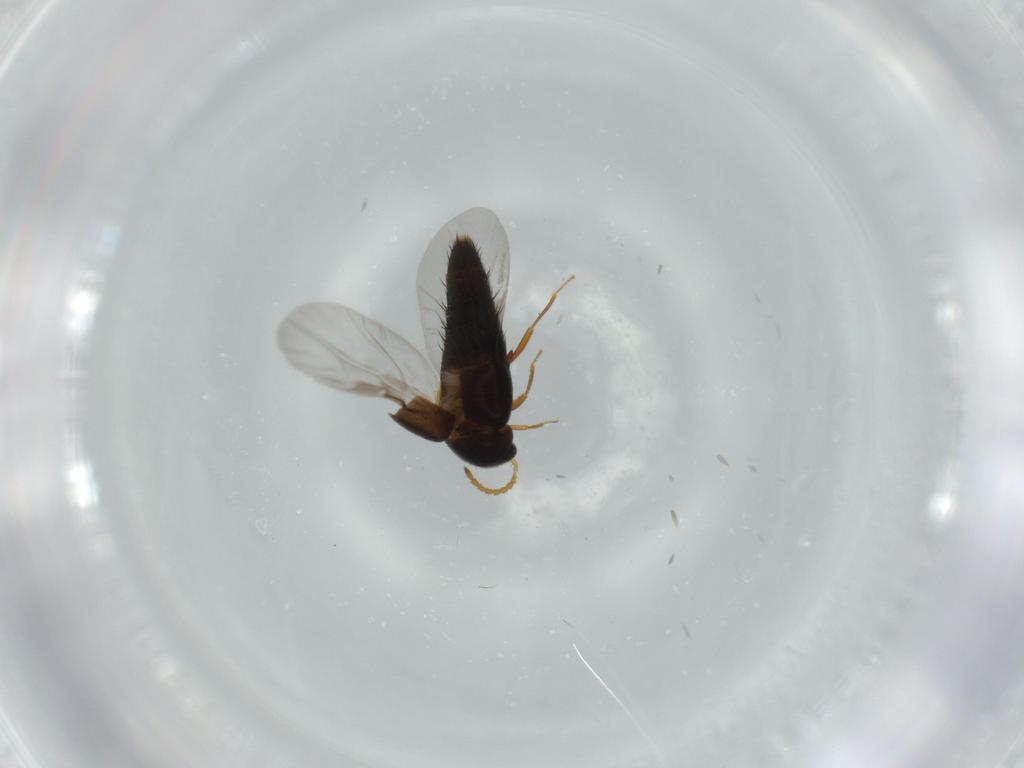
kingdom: Animalia
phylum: Arthropoda
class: Insecta
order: Coleoptera
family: Staphylinidae
